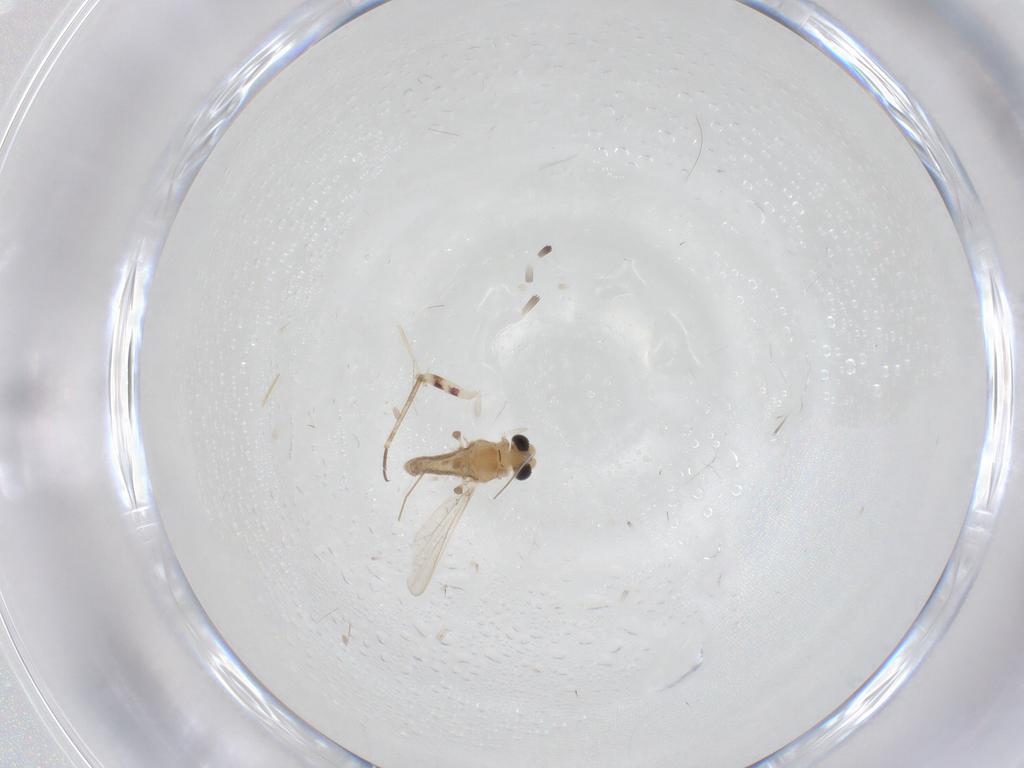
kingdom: Animalia
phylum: Arthropoda
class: Insecta
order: Diptera
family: Chironomidae
